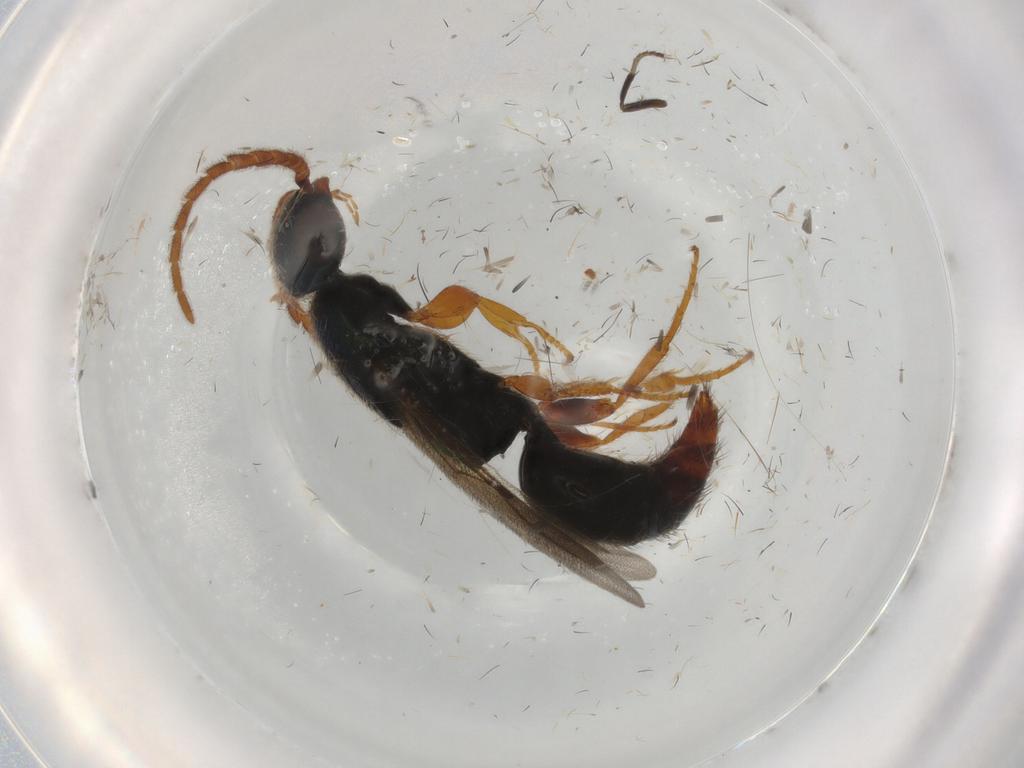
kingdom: Animalia
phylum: Arthropoda
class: Insecta
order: Hymenoptera
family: Bethylidae
